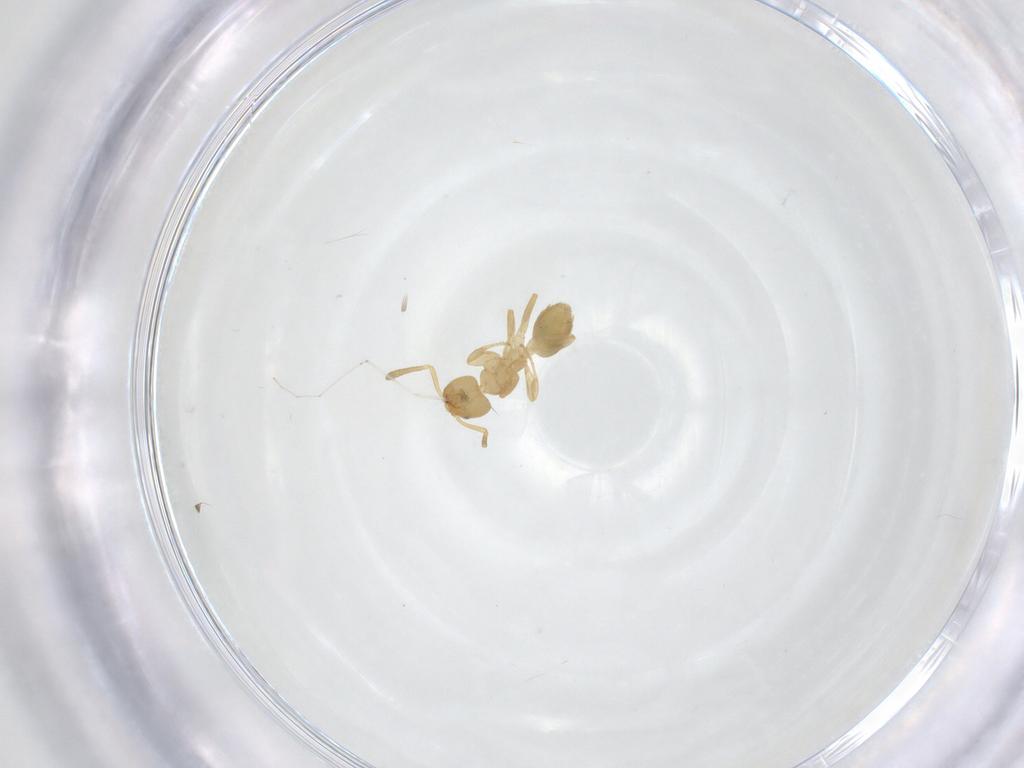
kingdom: Animalia
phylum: Arthropoda
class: Insecta
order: Hymenoptera
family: Formicidae
